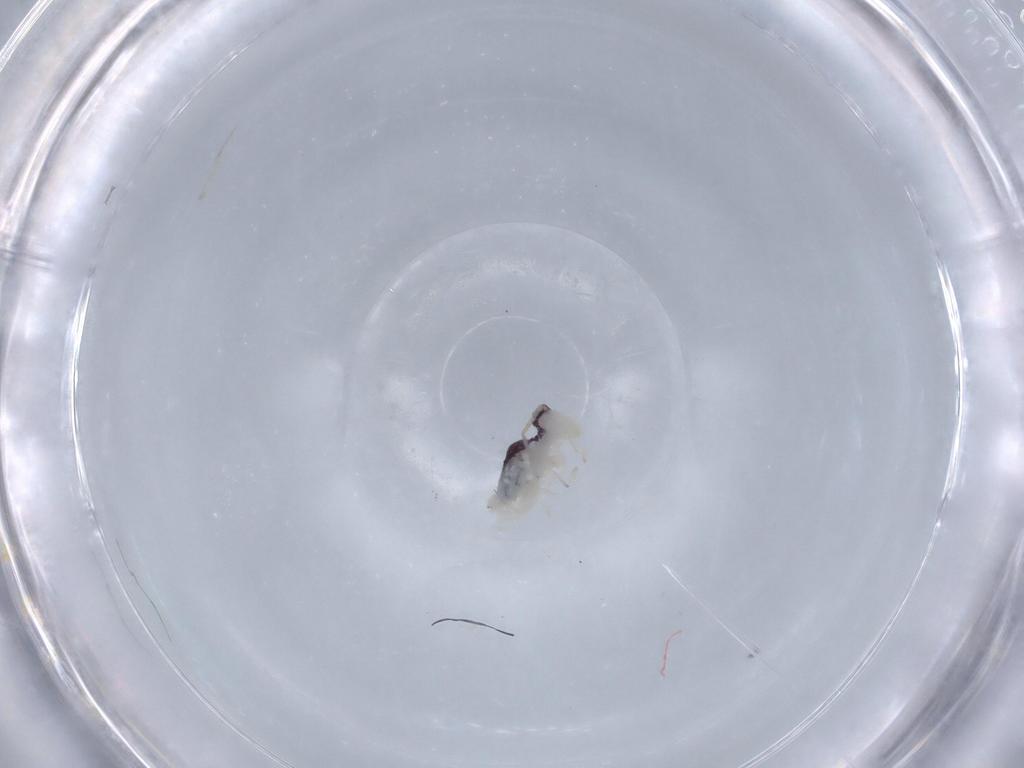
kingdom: Animalia
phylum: Arthropoda
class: Collembola
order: Symphypleona
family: Bourletiellidae
